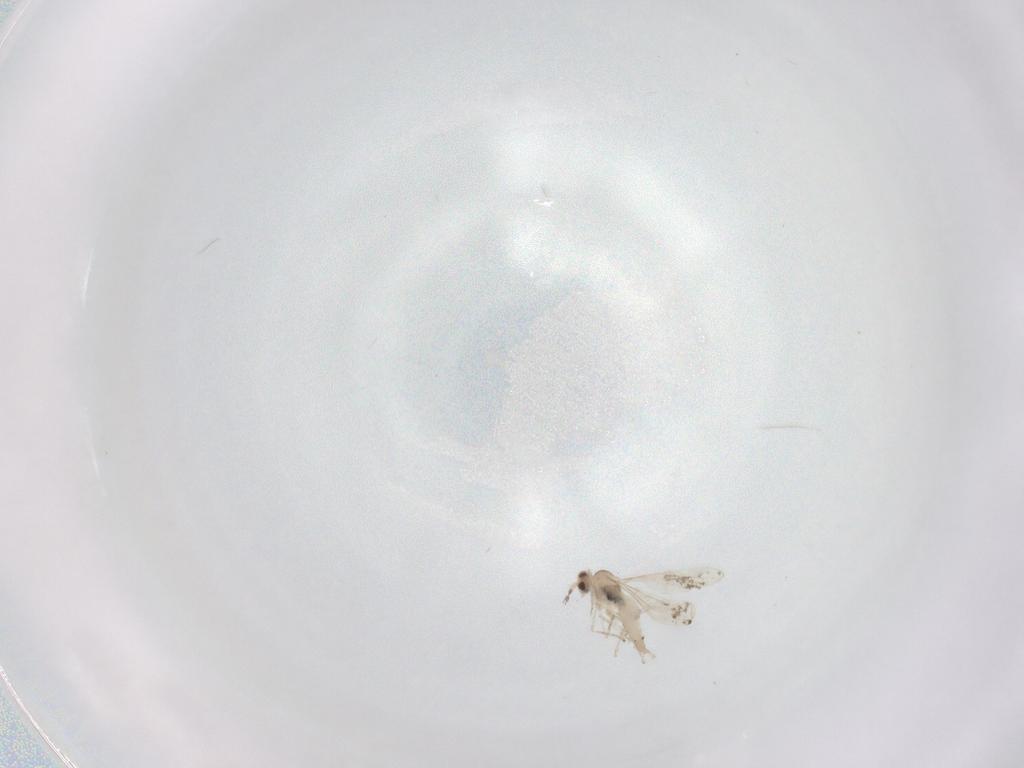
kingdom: Animalia
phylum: Arthropoda
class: Insecta
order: Diptera
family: Cecidomyiidae
